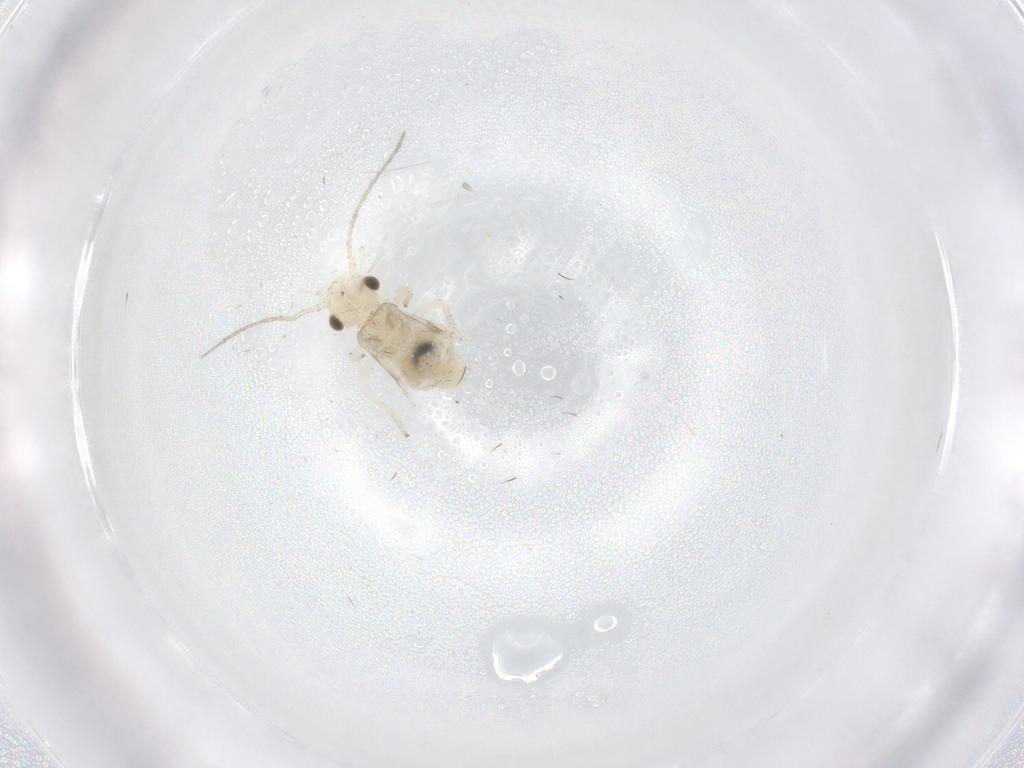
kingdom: Animalia
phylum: Arthropoda
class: Insecta
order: Psocodea
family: Caeciliusidae
